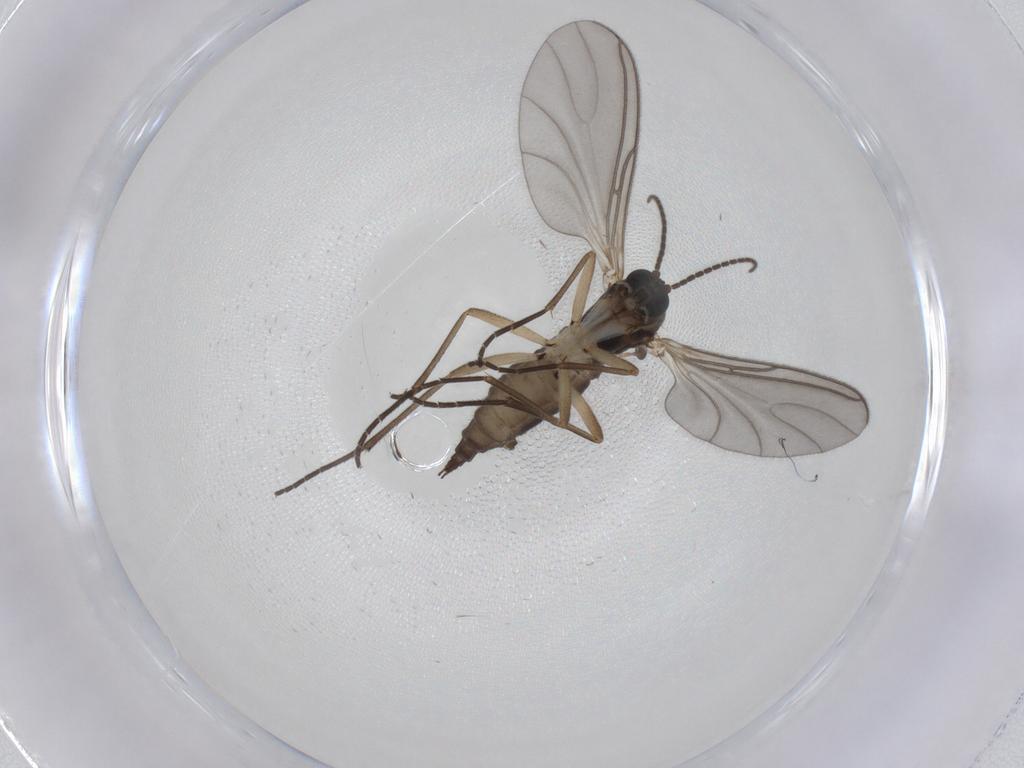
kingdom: Animalia
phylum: Arthropoda
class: Insecta
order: Diptera
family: Sciaridae
